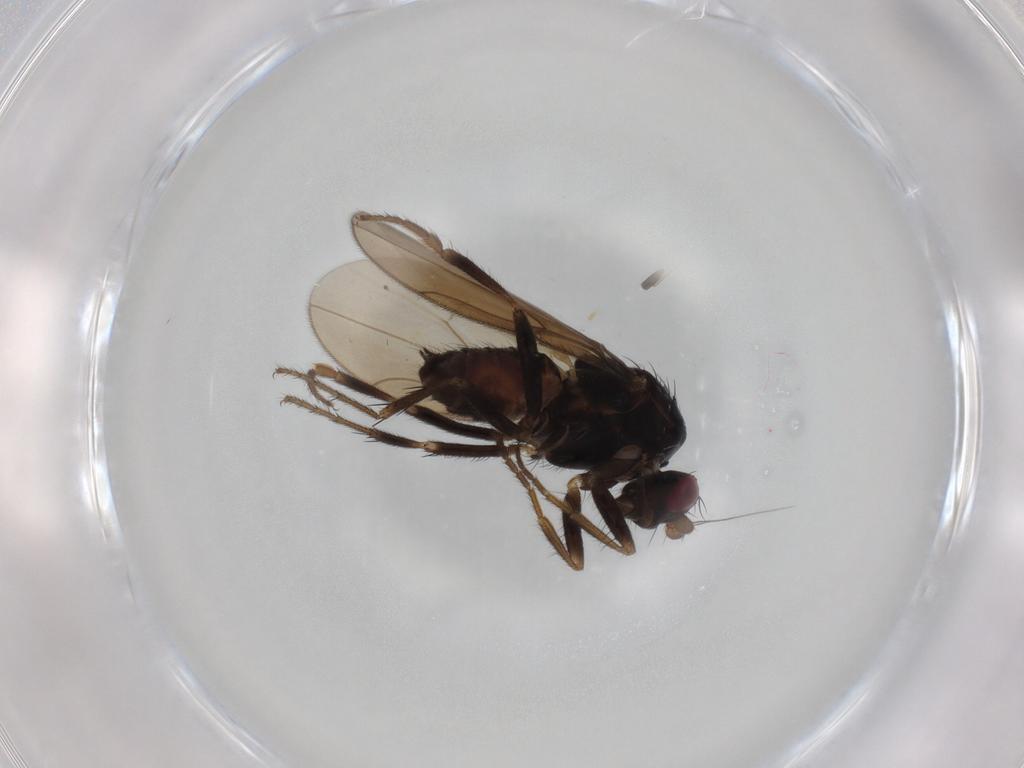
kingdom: Animalia
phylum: Arthropoda
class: Insecta
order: Diptera
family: Sphaeroceridae
